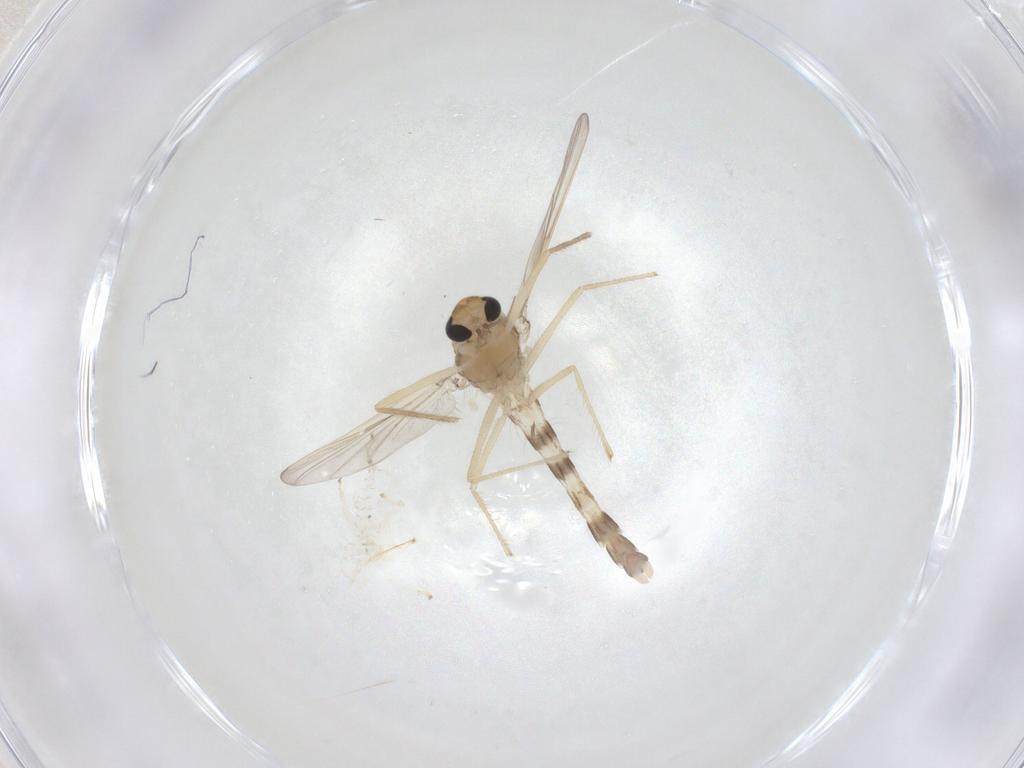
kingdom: Animalia
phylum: Arthropoda
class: Insecta
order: Diptera
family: Chironomidae
